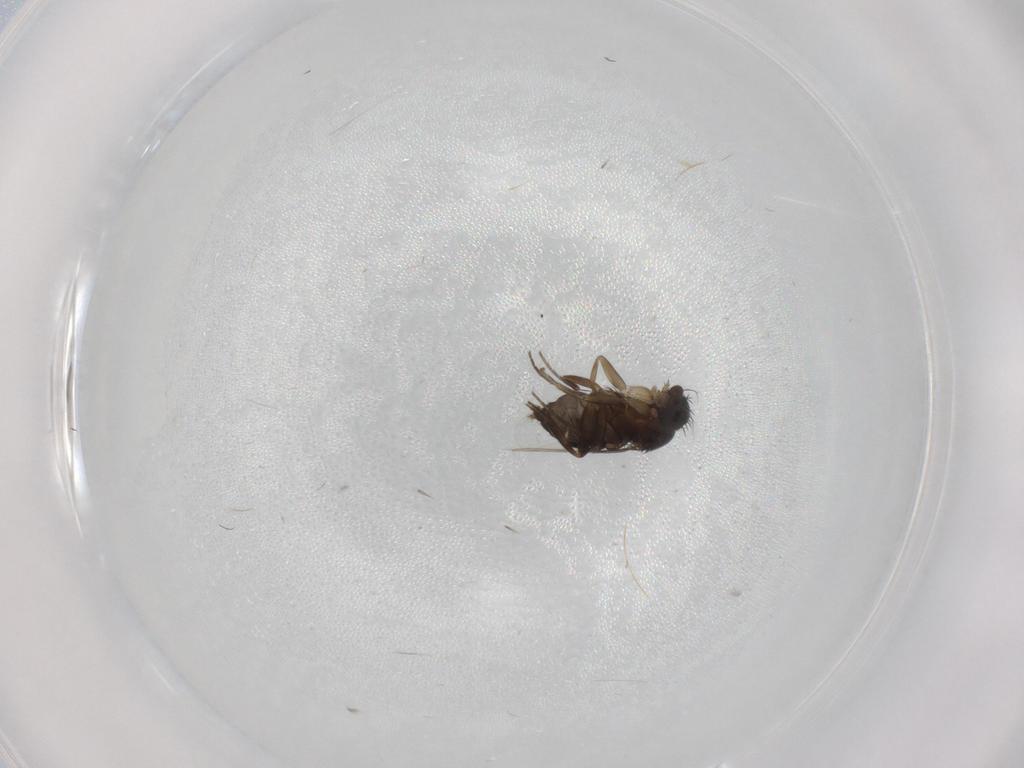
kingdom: Animalia
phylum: Arthropoda
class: Insecta
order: Diptera
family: Phoridae
